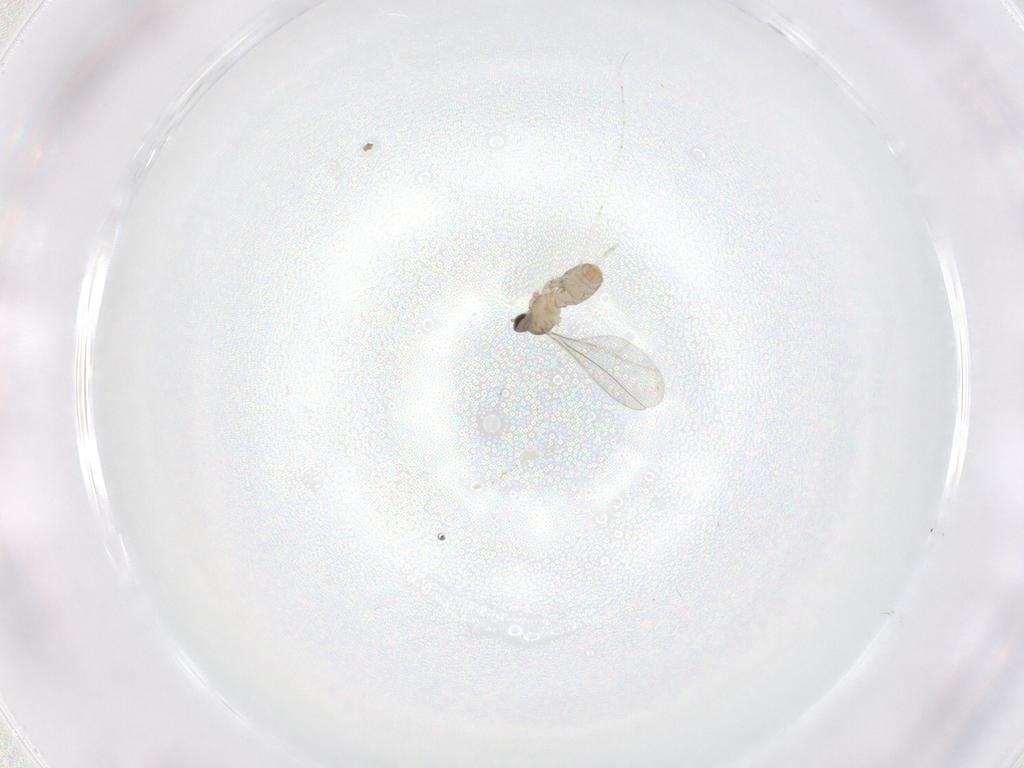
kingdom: Animalia
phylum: Arthropoda
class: Insecta
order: Diptera
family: Cecidomyiidae
